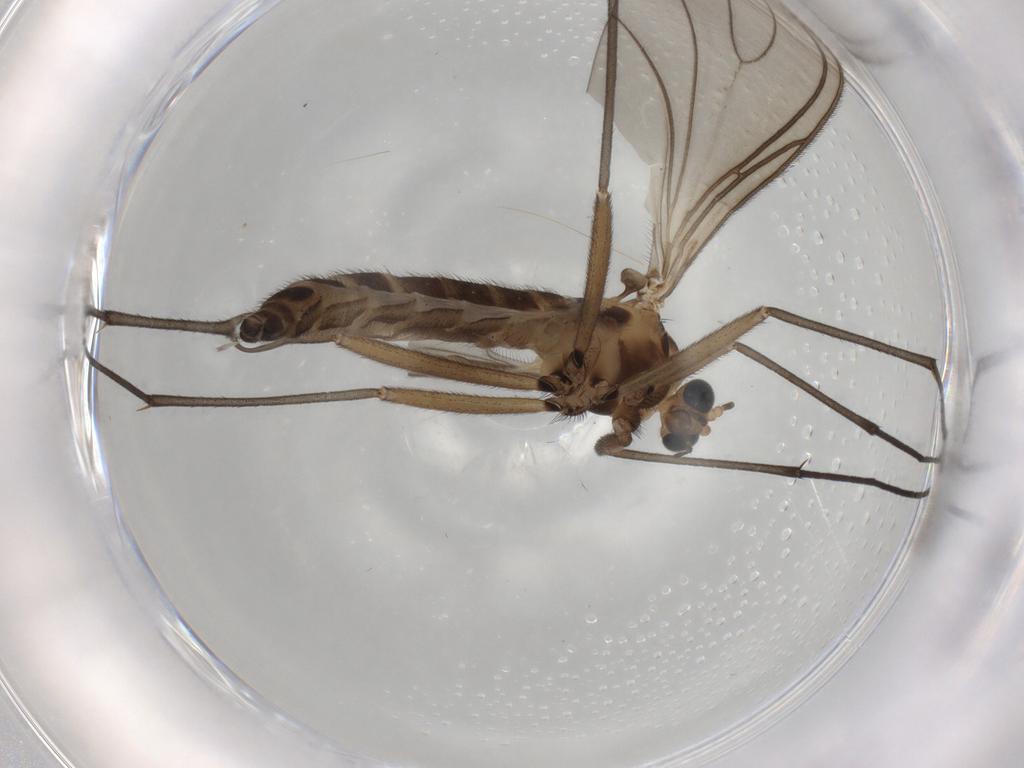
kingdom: Animalia
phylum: Arthropoda
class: Insecta
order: Diptera
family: Sciaridae
